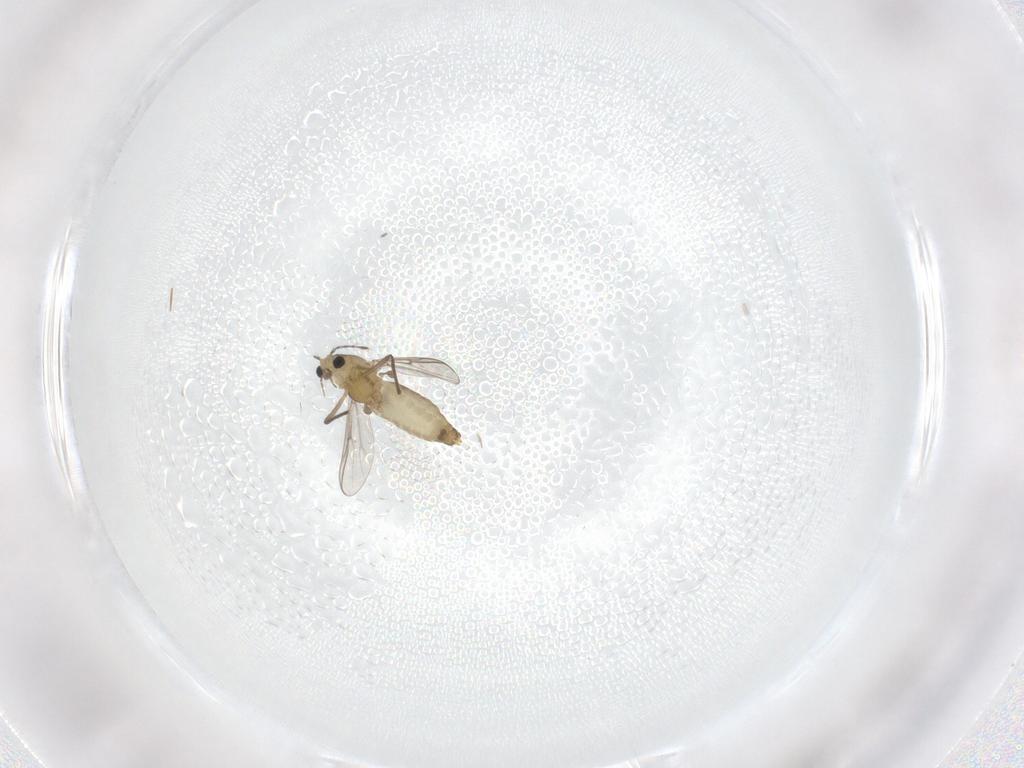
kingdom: Animalia
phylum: Arthropoda
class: Insecta
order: Diptera
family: Chironomidae
